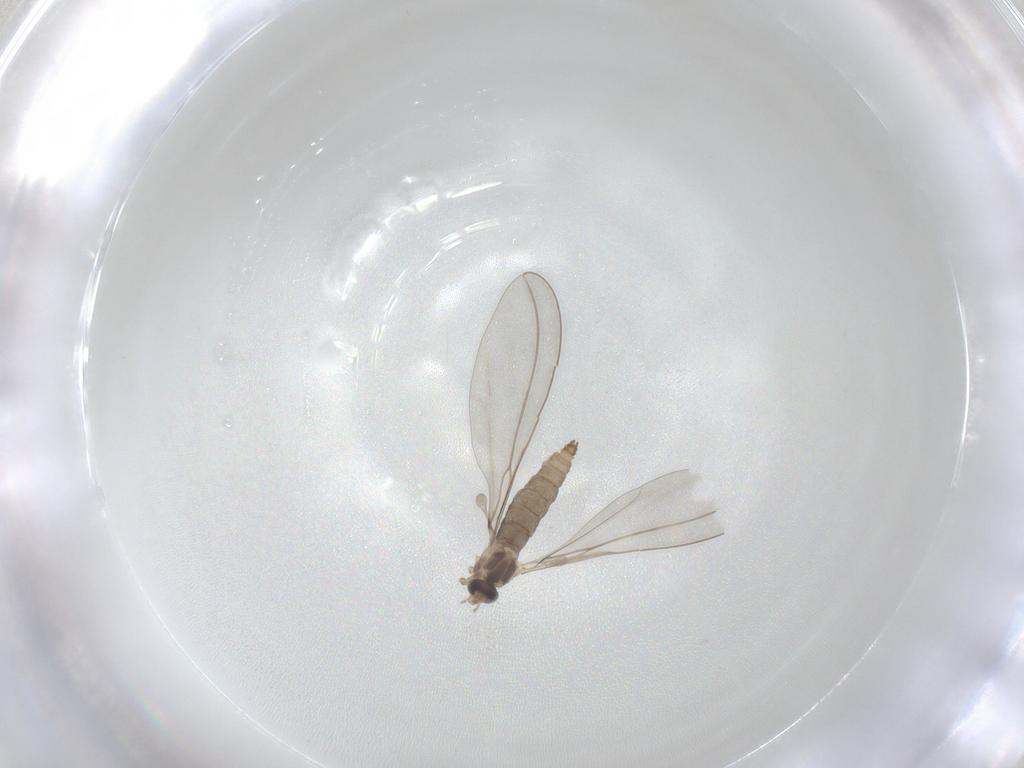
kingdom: Animalia
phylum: Arthropoda
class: Insecta
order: Diptera
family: Cecidomyiidae
